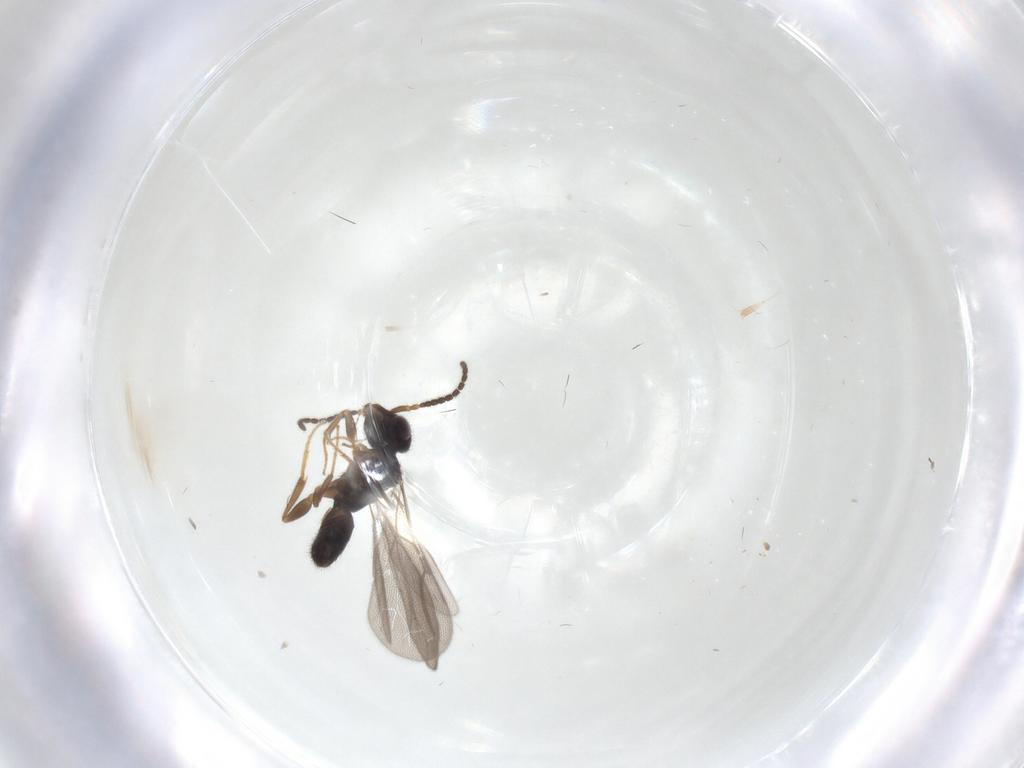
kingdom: Animalia
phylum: Arthropoda
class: Insecta
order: Hymenoptera
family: Bethylidae
